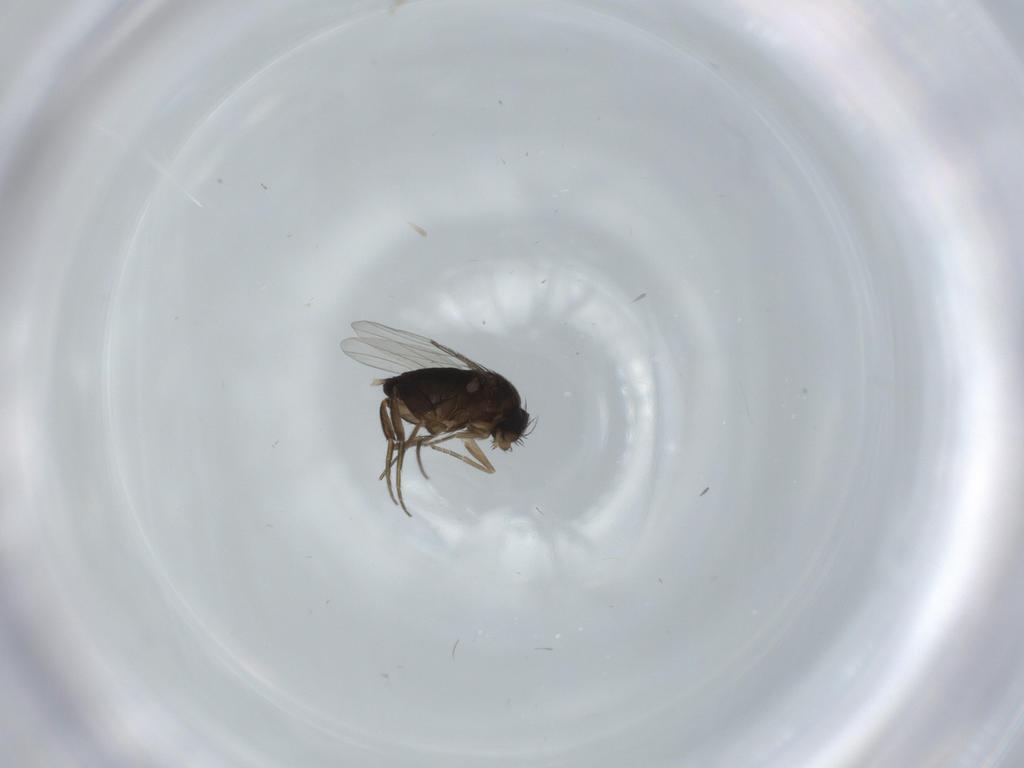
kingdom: Animalia
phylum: Arthropoda
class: Insecta
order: Diptera
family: Phoridae
